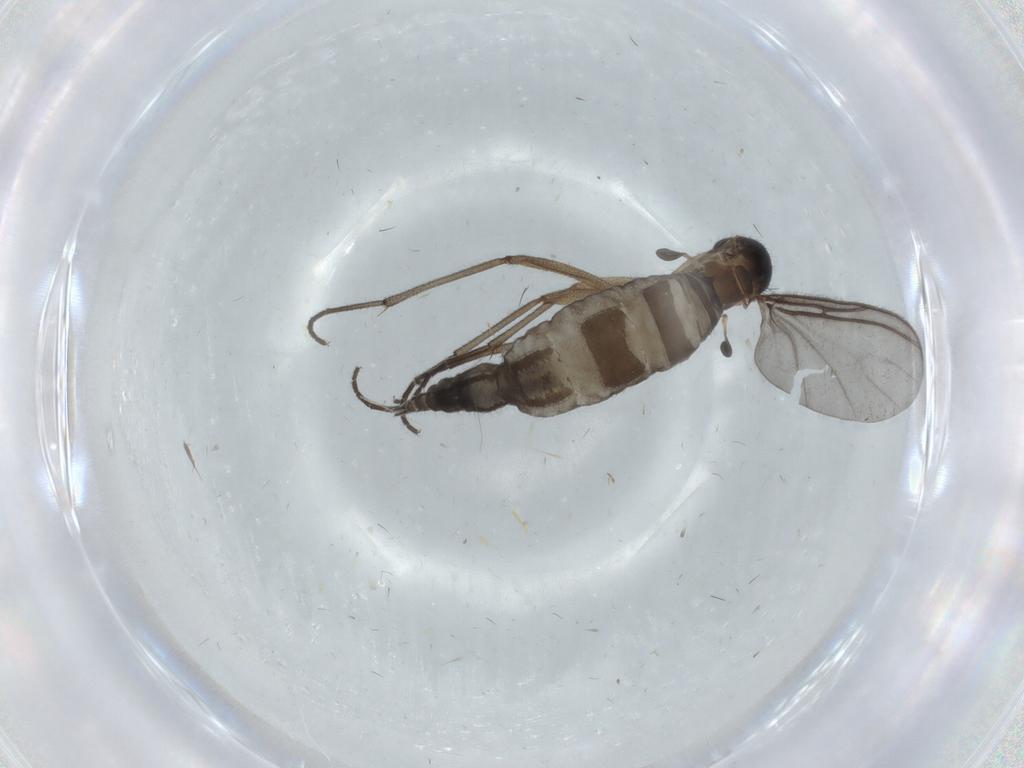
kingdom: Animalia
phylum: Arthropoda
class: Insecta
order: Diptera
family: Sciaridae
